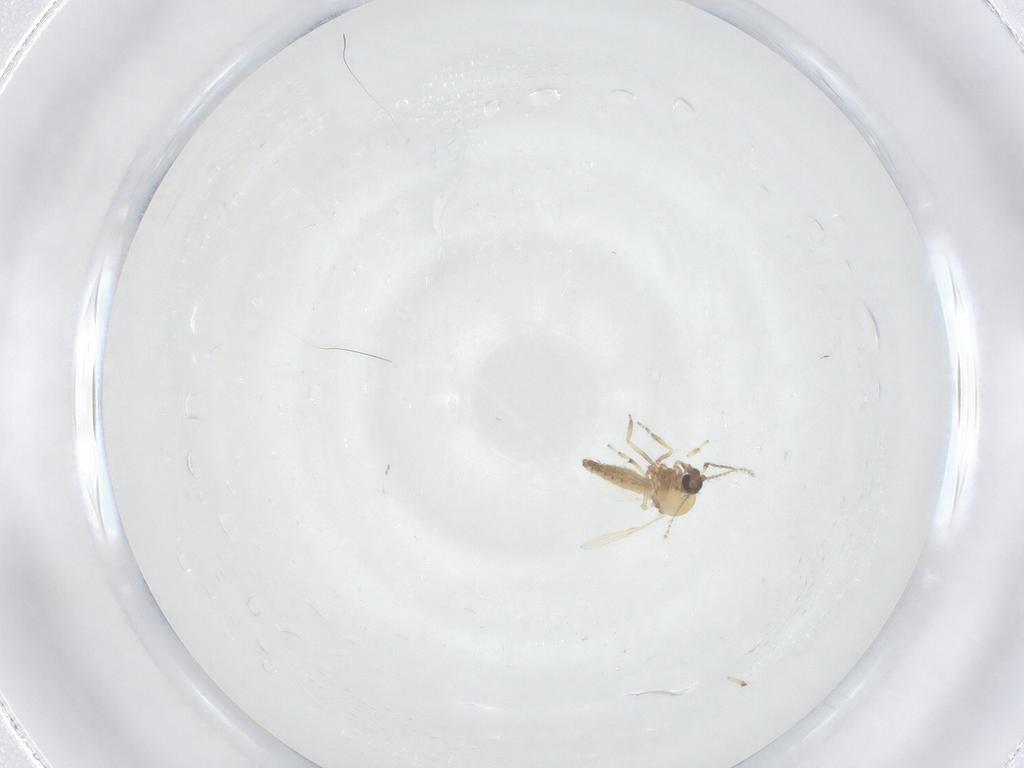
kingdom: Animalia
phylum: Arthropoda
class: Insecta
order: Diptera
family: Ceratopogonidae
